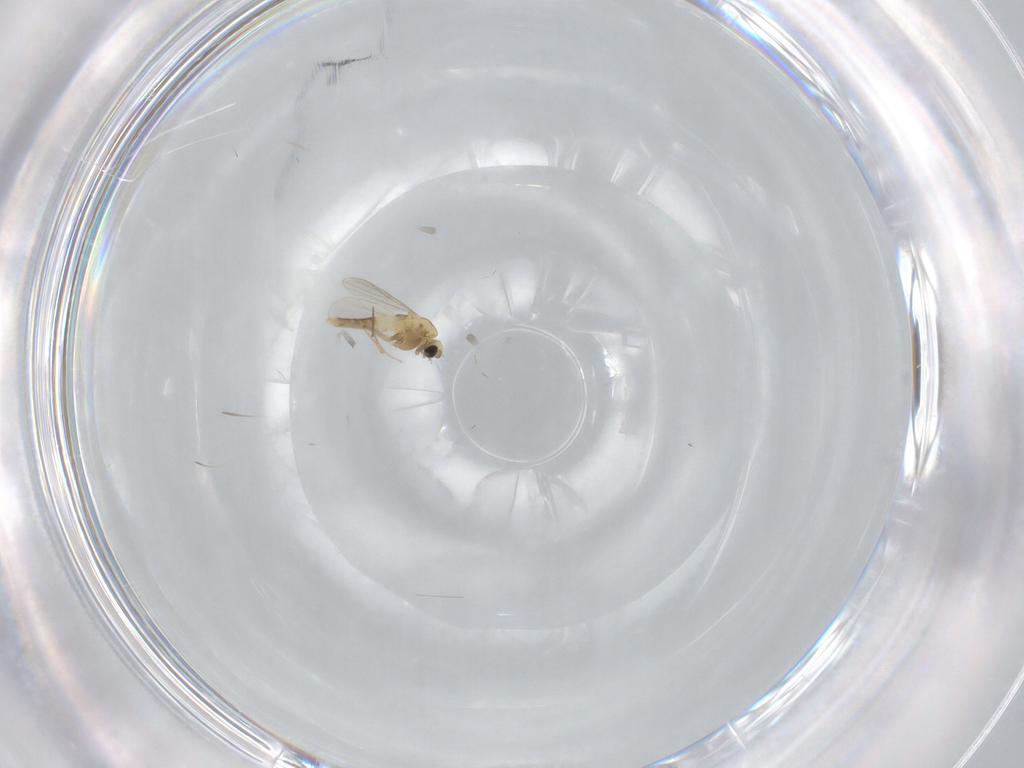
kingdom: Animalia
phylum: Arthropoda
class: Insecta
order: Diptera
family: Chironomidae
